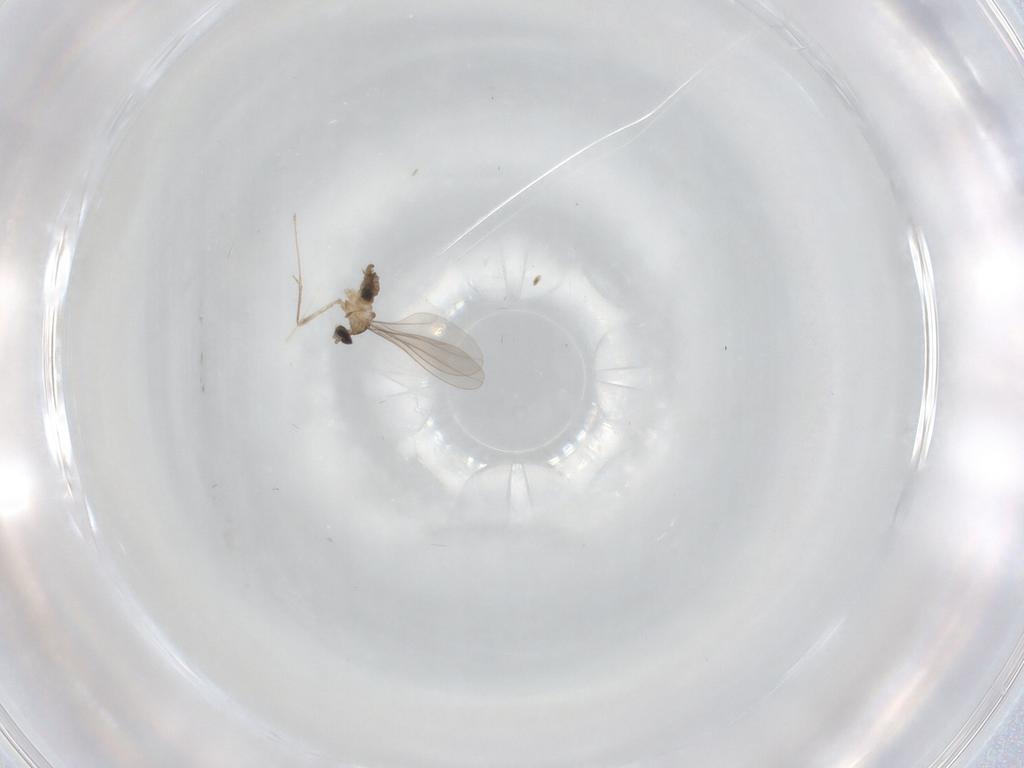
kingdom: Animalia
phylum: Arthropoda
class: Insecta
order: Diptera
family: Cecidomyiidae
